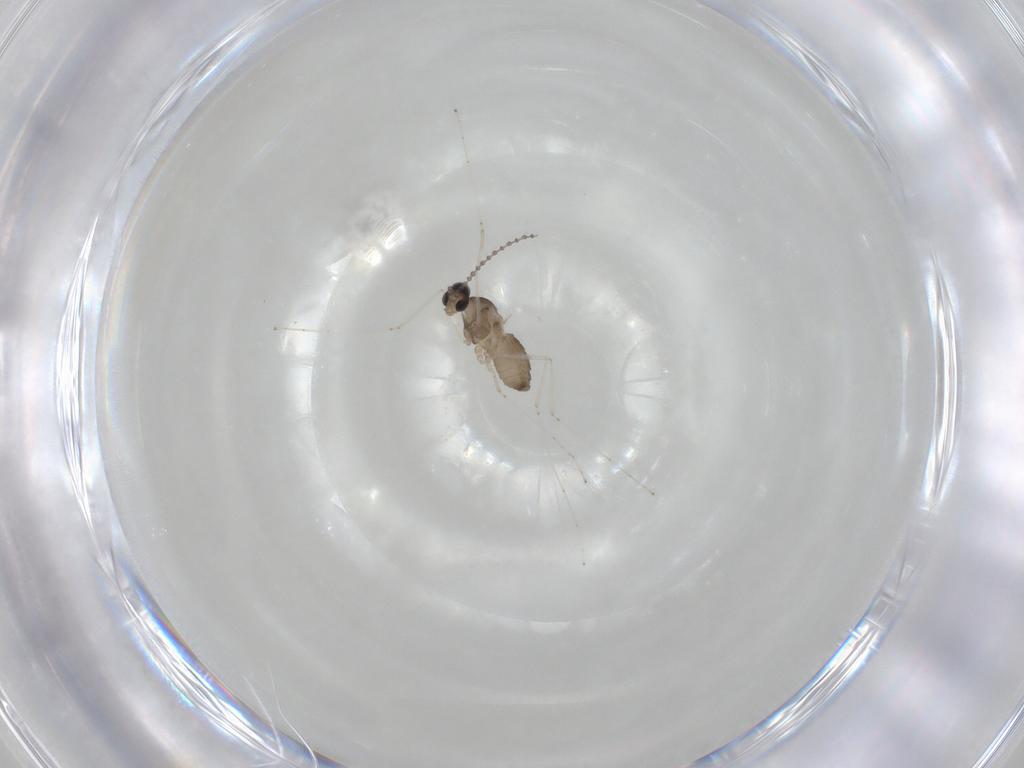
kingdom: Animalia
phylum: Arthropoda
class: Insecta
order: Diptera
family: Cecidomyiidae
